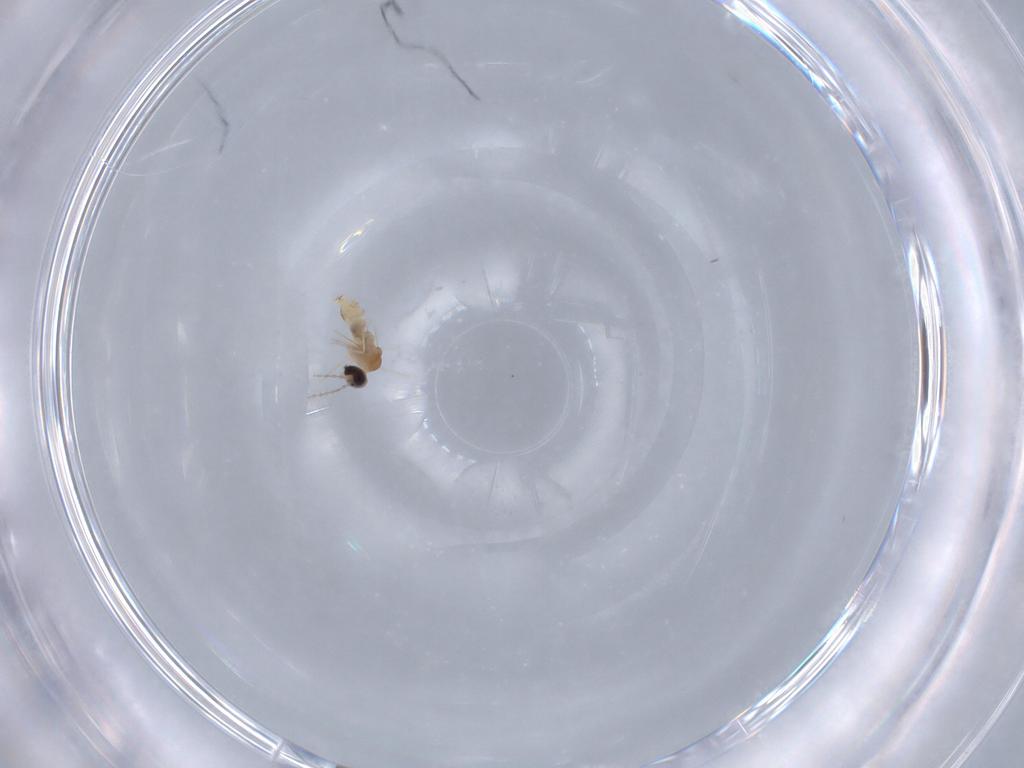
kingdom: Animalia
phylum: Arthropoda
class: Insecta
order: Diptera
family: Cecidomyiidae
